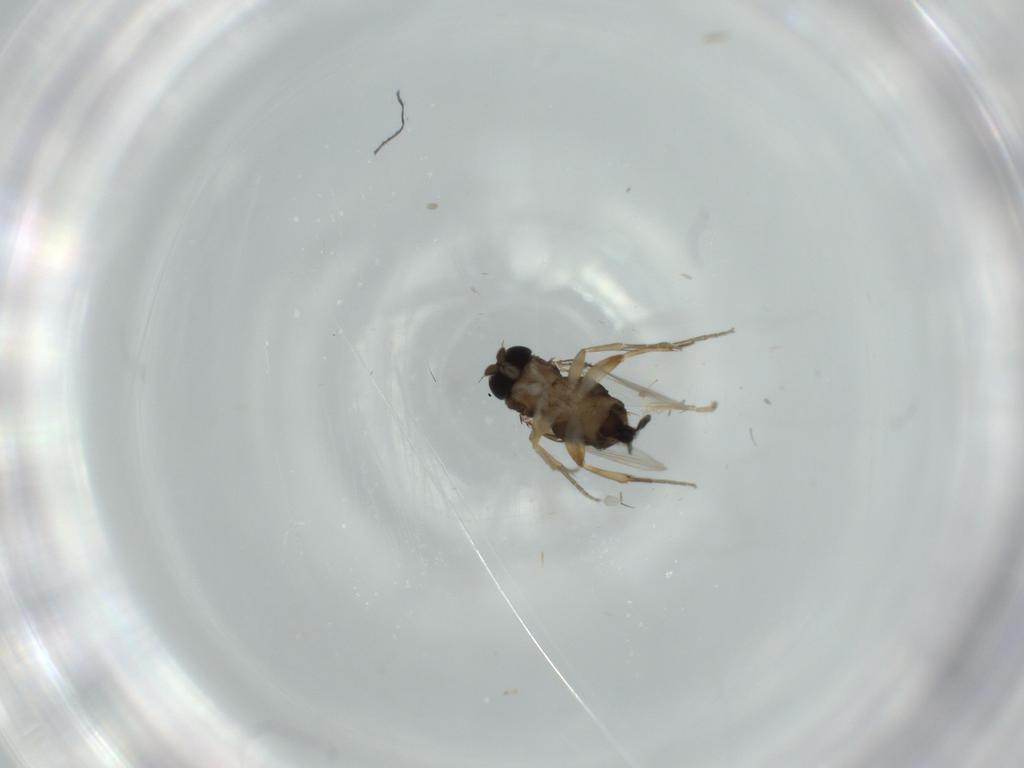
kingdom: Animalia
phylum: Arthropoda
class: Insecta
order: Diptera
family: Phoridae
